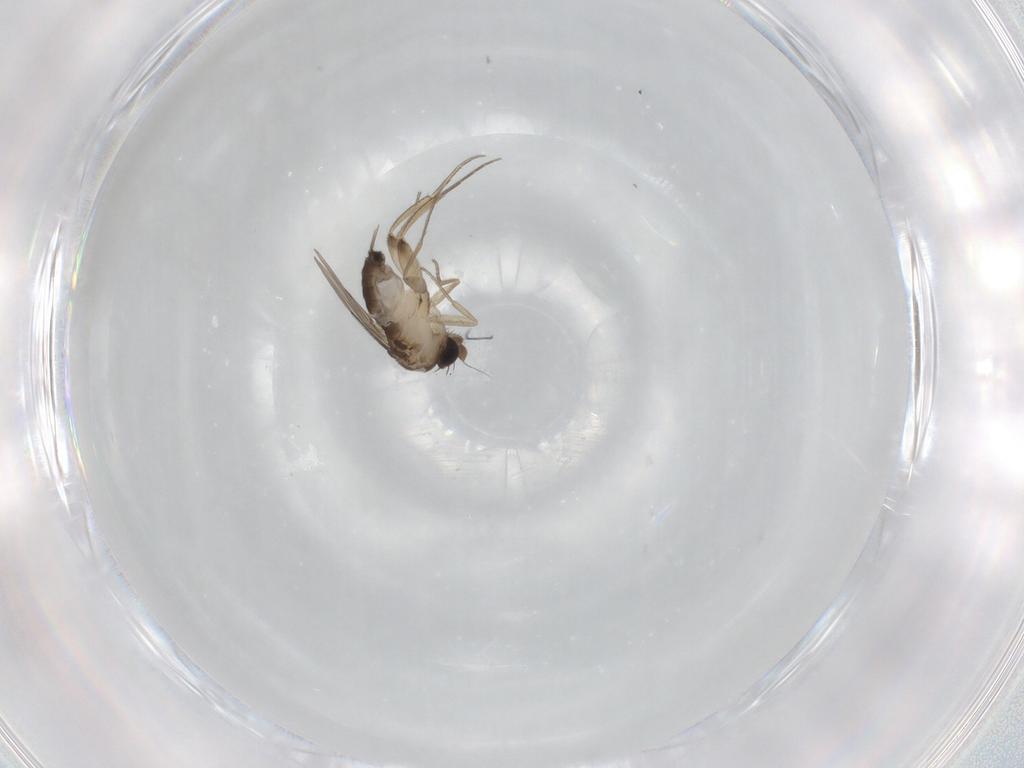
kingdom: Animalia
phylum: Arthropoda
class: Insecta
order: Diptera
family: Phoridae
